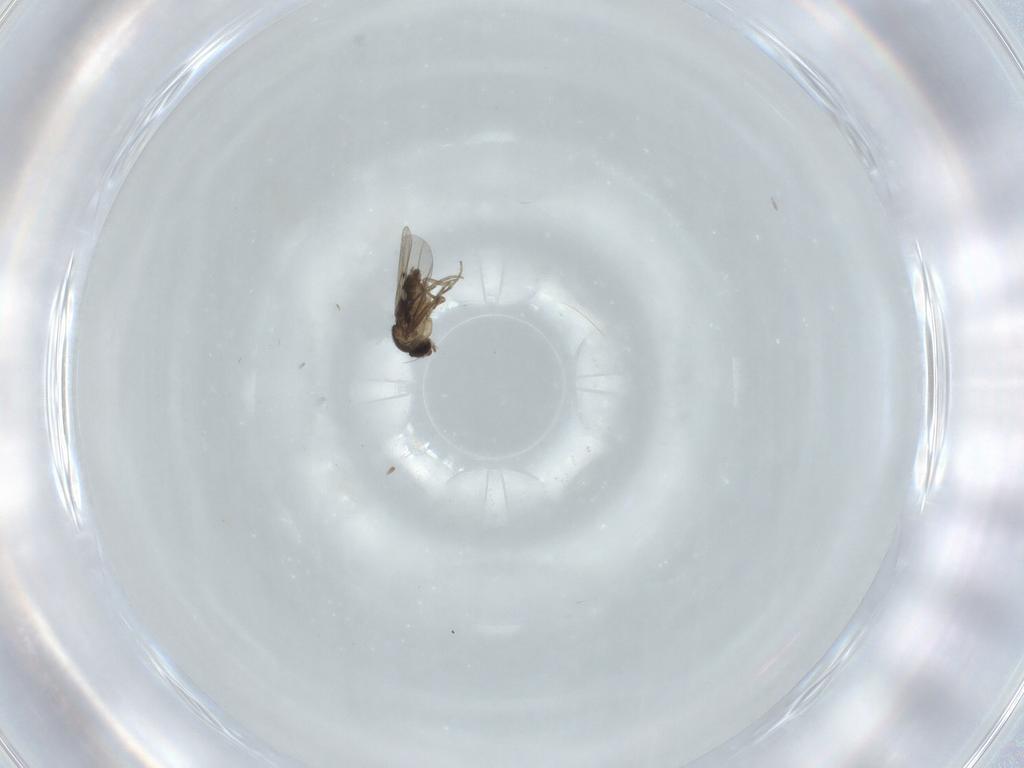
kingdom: Animalia
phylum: Arthropoda
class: Insecta
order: Diptera
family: Phoridae
